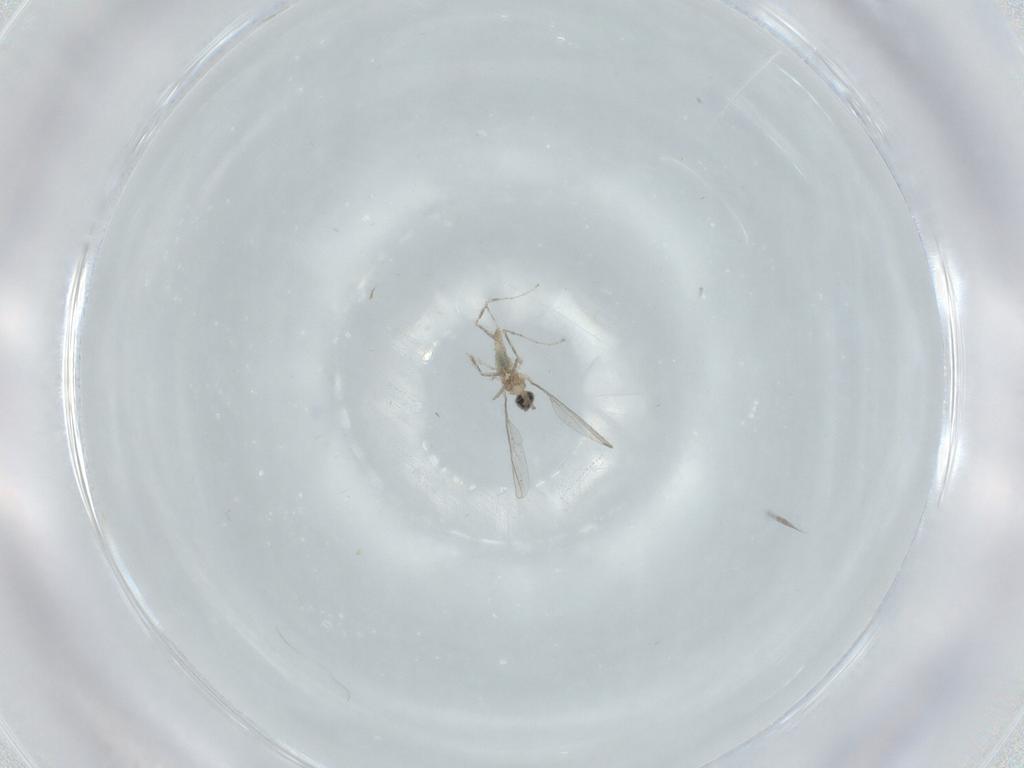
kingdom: Animalia
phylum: Arthropoda
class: Insecta
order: Diptera
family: Cecidomyiidae
